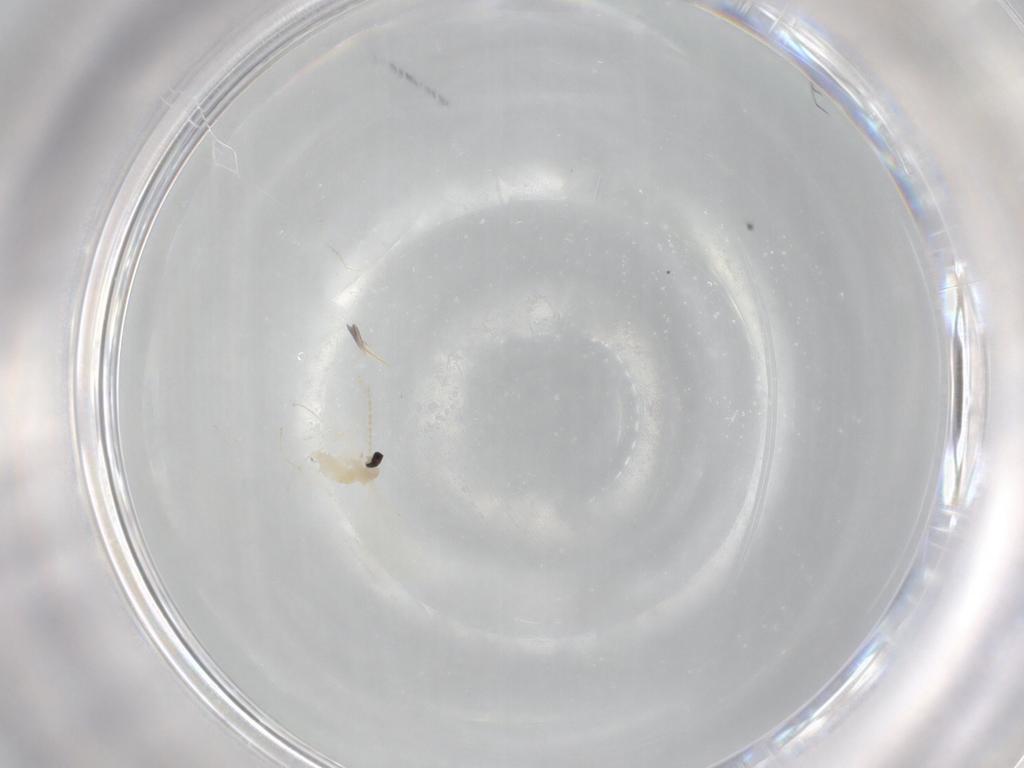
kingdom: Animalia
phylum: Arthropoda
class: Insecta
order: Diptera
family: Cecidomyiidae
